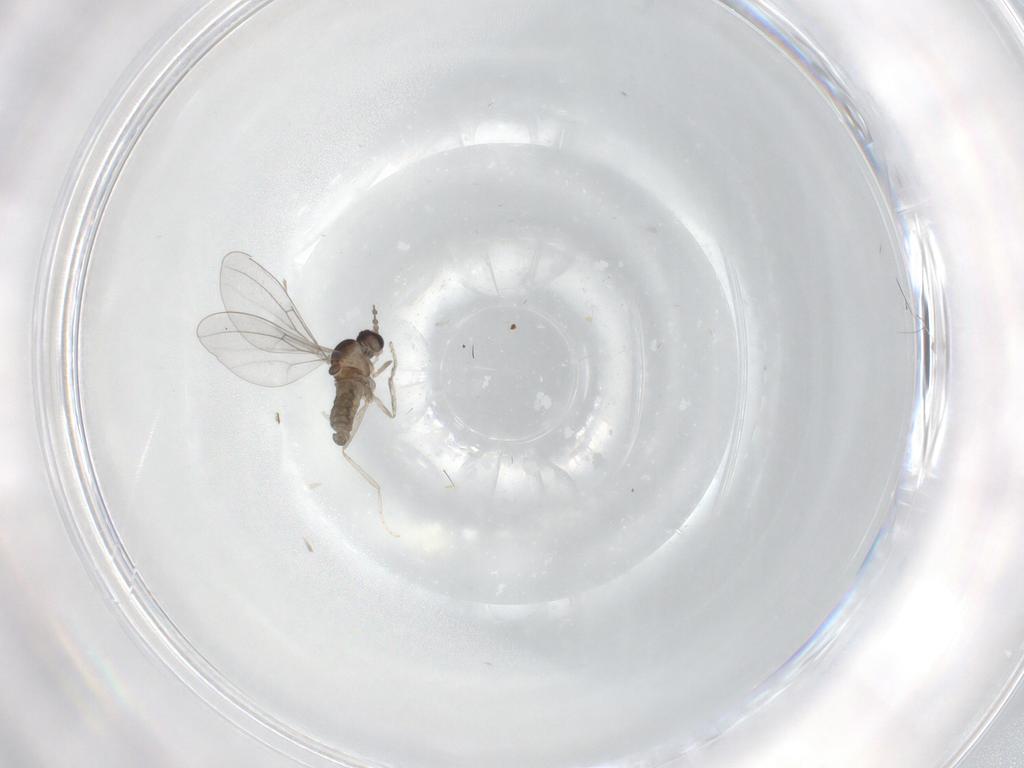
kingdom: Animalia
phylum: Arthropoda
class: Insecta
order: Diptera
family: Cecidomyiidae
